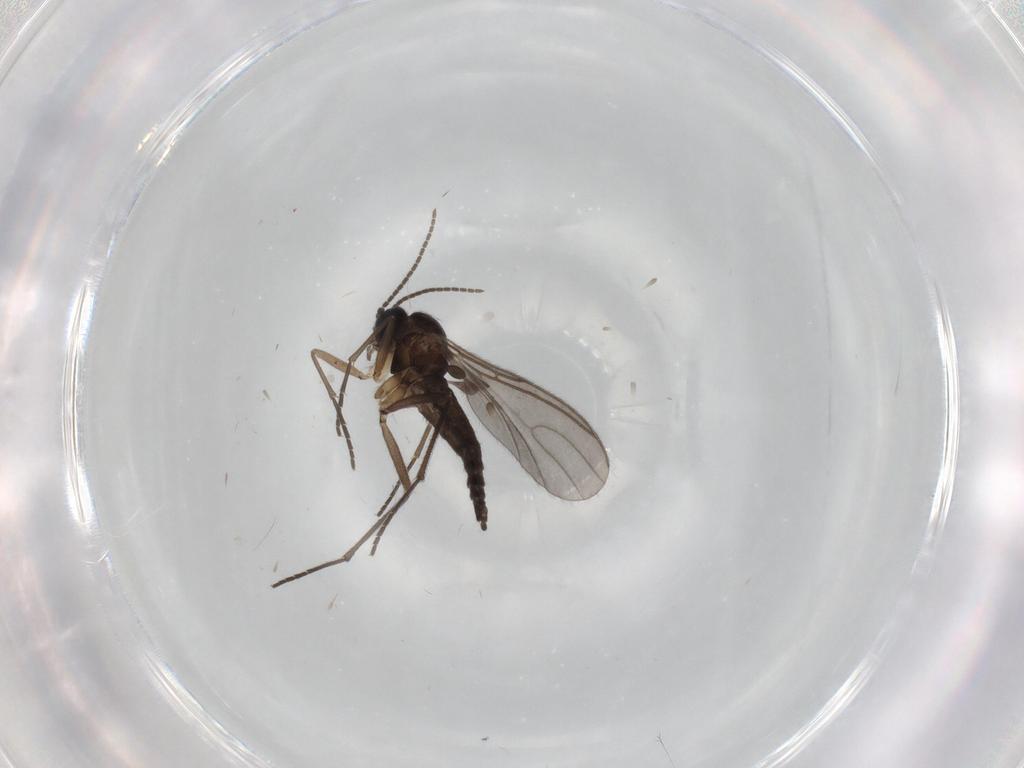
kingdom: Animalia
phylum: Arthropoda
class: Insecta
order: Diptera
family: Sciaridae
